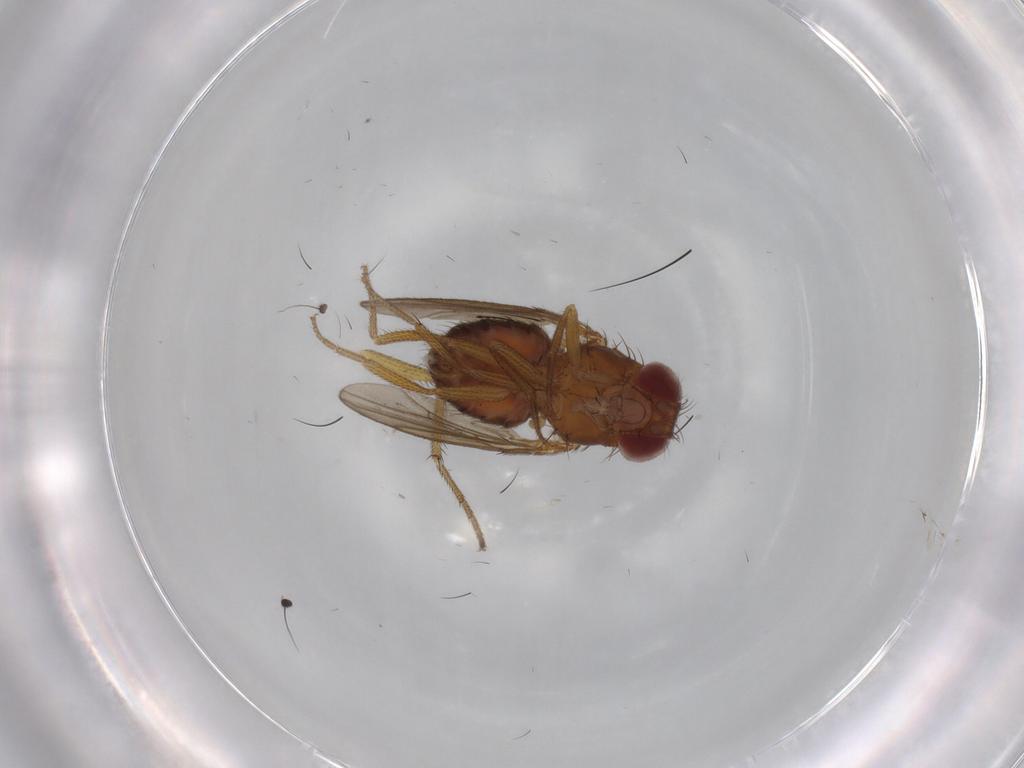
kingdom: Animalia
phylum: Arthropoda
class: Insecta
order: Diptera
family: Drosophilidae
